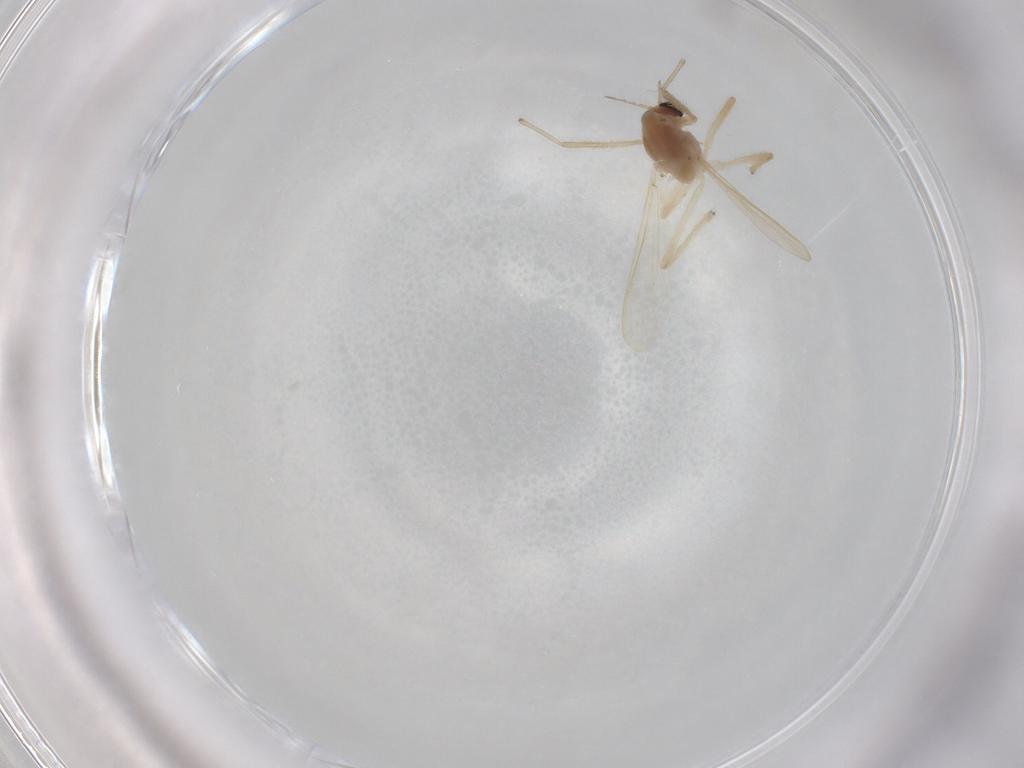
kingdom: Animalia
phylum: Arthropoda
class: Insecta
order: Diptera
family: Chironomidae
